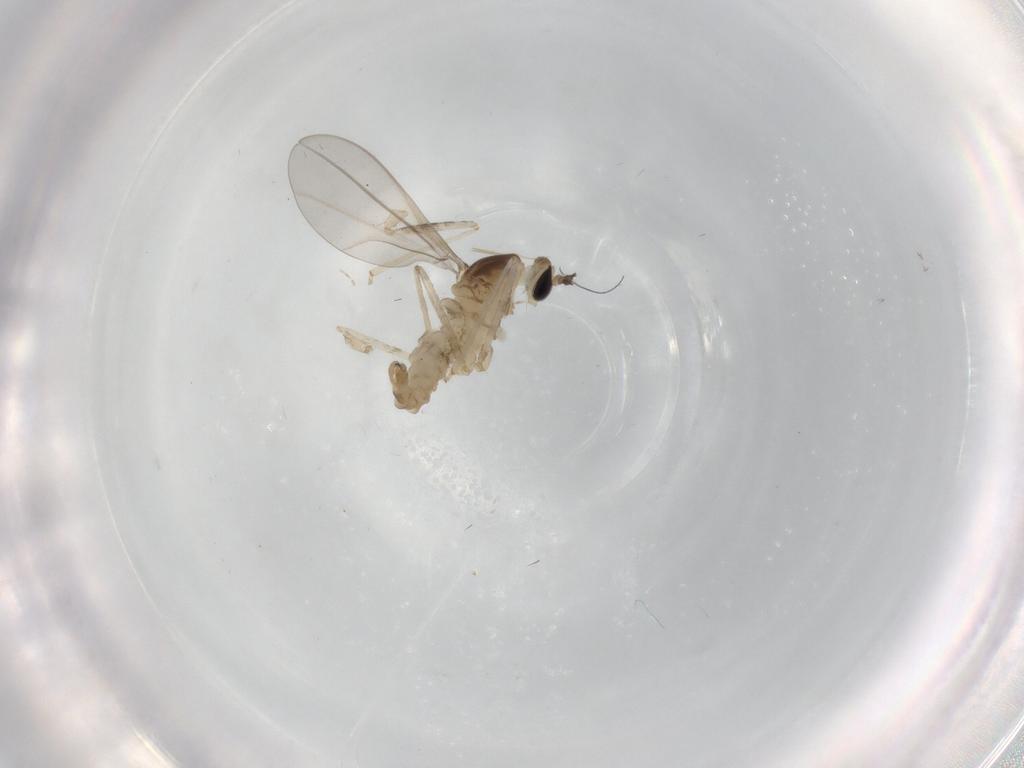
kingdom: Animalia
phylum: Arthropoda
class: Insecta
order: Diptera
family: Cecidomyiidae
